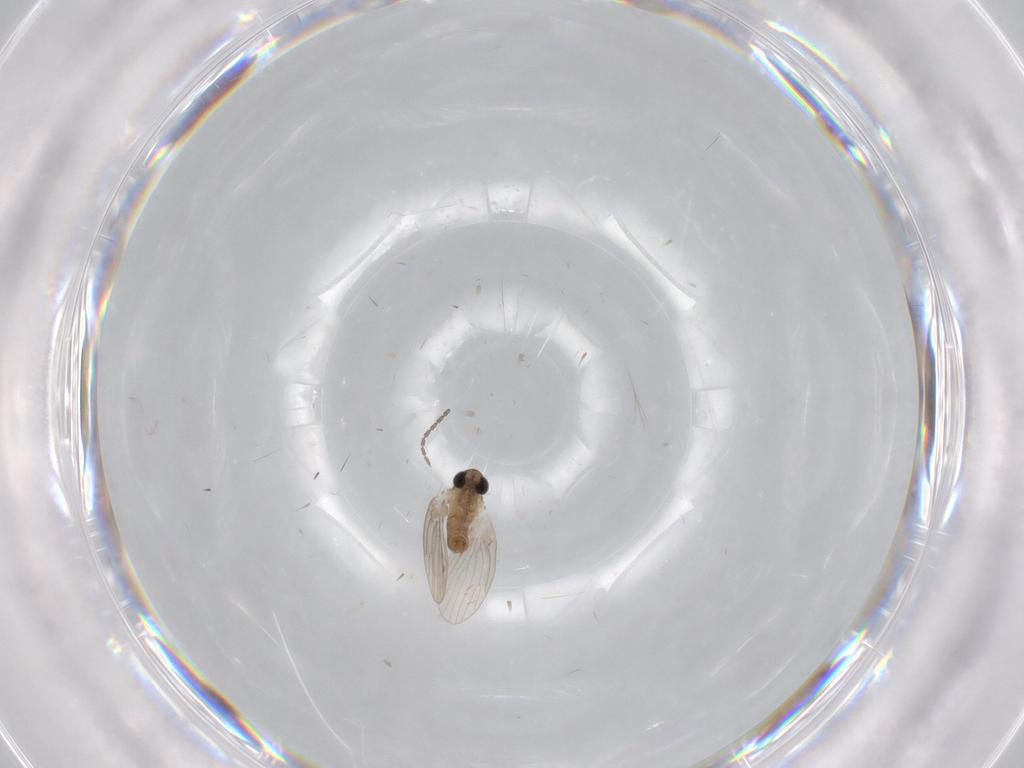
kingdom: Animalia
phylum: Arthropoda
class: Insecta
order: Diptera
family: Psychodidae
